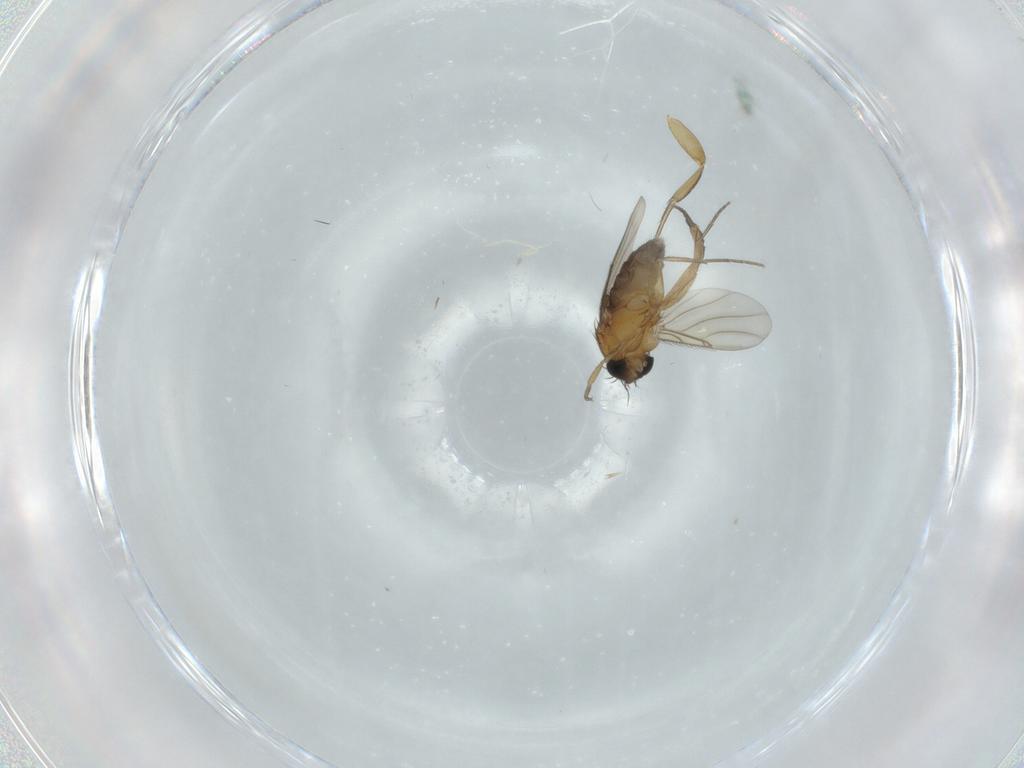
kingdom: Animalia
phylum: Arthropoda
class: Insecta
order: Diptera
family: Phoridae
